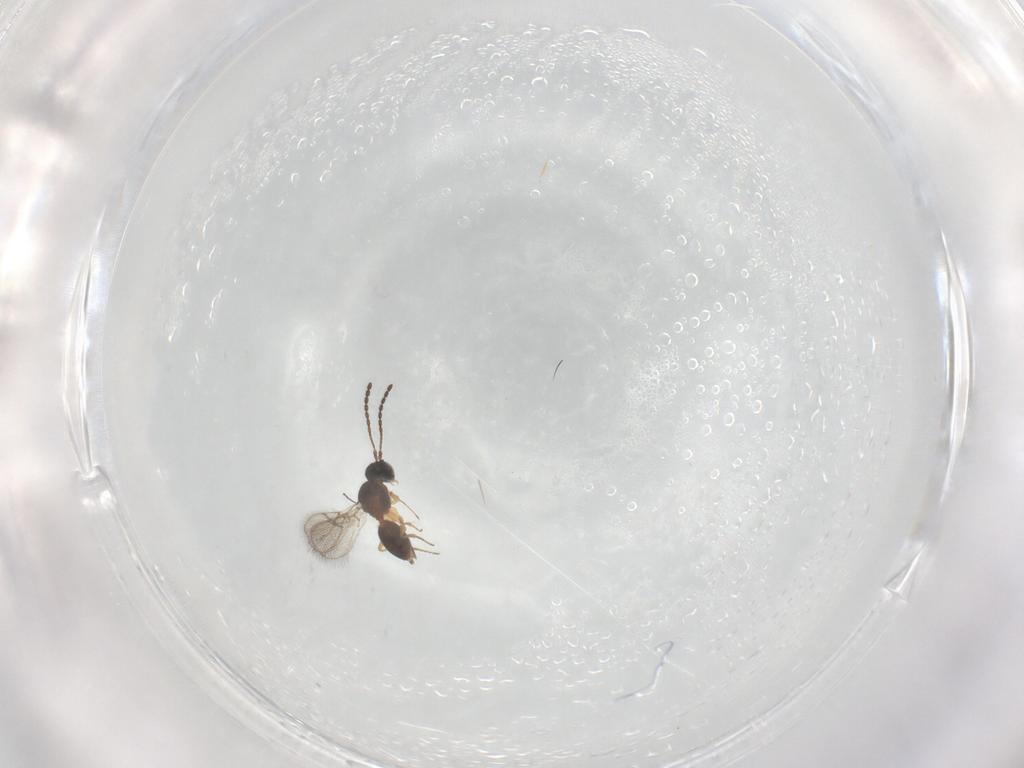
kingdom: Animalia
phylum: Arthropoda
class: Insecta
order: Hymenoptera
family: Figitidae
